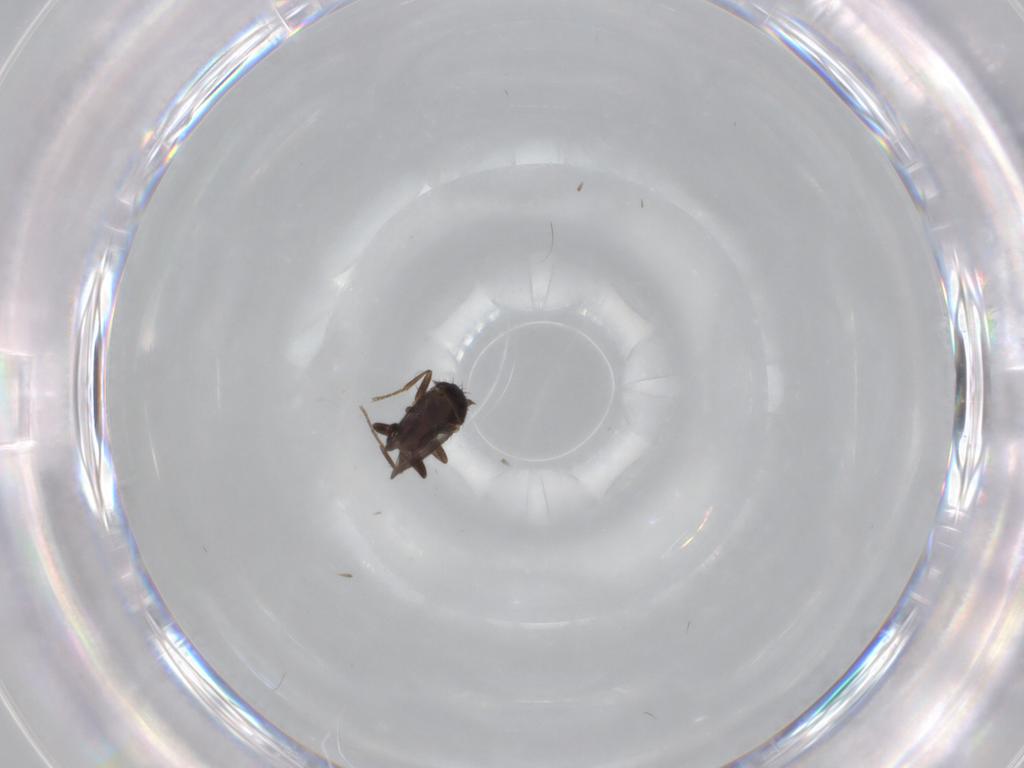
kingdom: Animalia
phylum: Arthropoda
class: Insecta
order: Diptera
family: Sphaeroceridae
